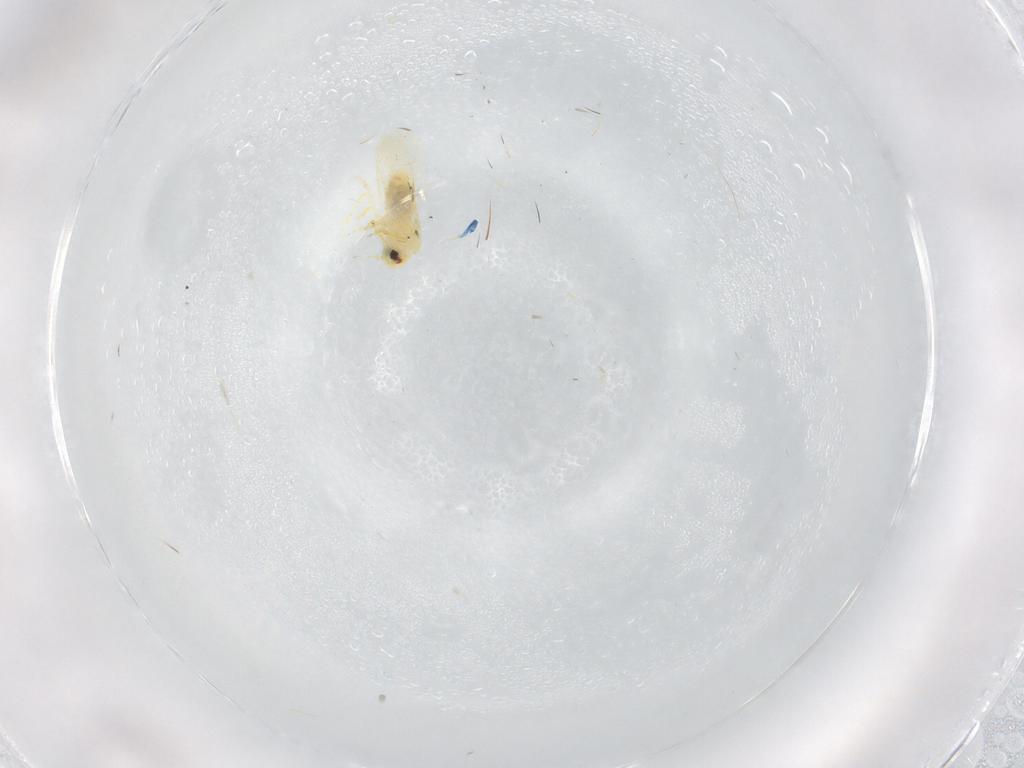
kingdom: Animalia
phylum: Arthropoda
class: Insecta
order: Hemiptera
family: Aleyrodidae
